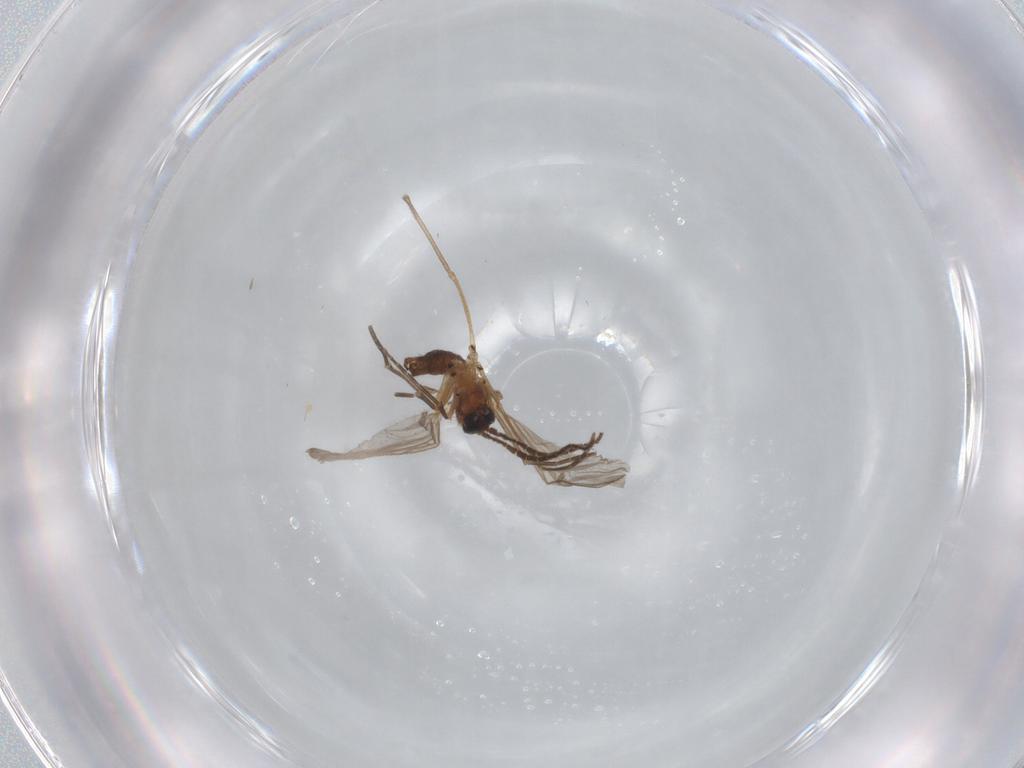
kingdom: Animalia
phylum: Arthropoda
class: Insecta
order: Diptera
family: Sciaridae
